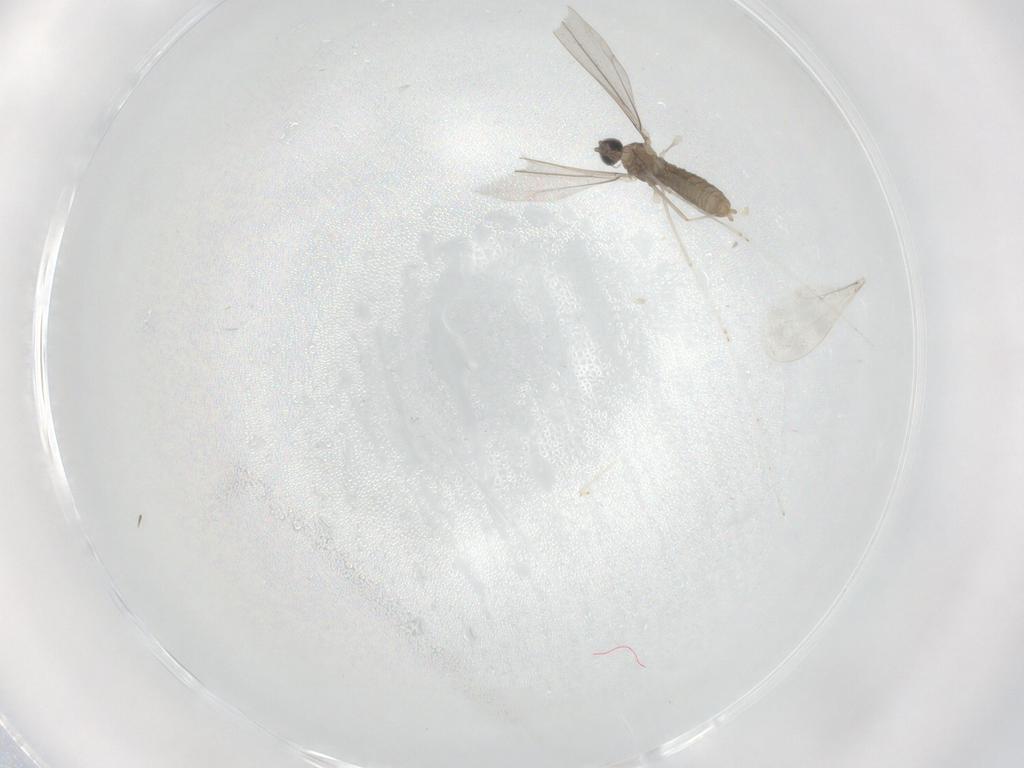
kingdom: Animalia
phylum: Arthropoda
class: Insecta
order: Diptera
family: Cecidomyiidae
